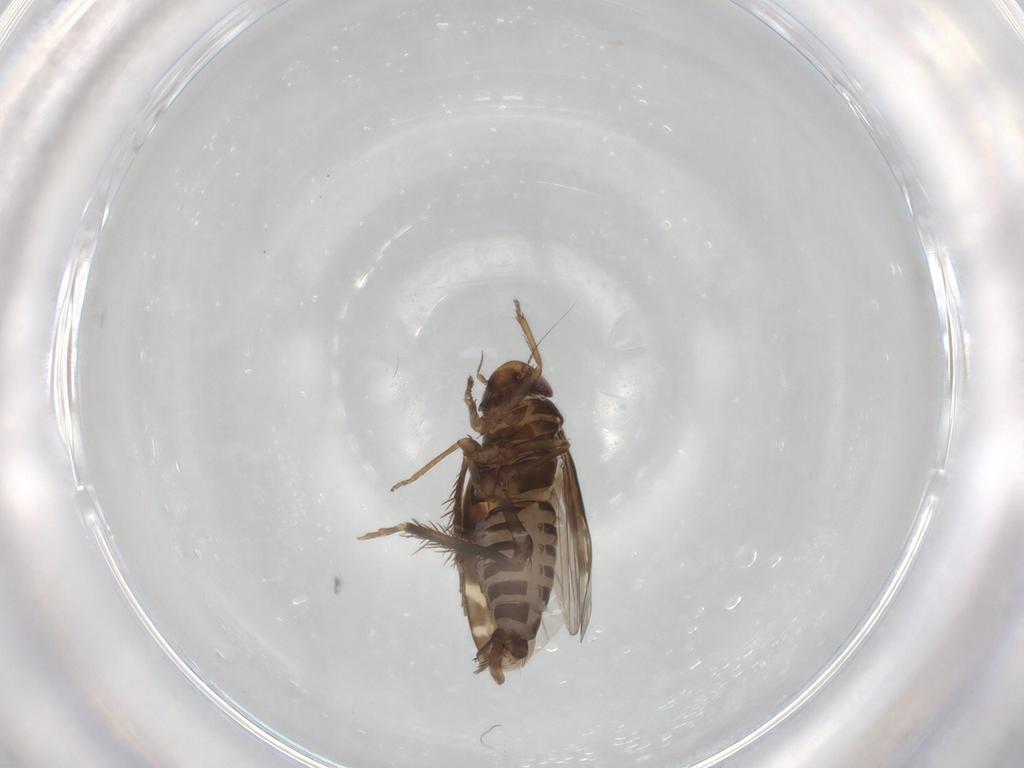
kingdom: Animalia
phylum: Arthropoda
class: Insecta
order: Hemiptera
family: Cicadellidae
